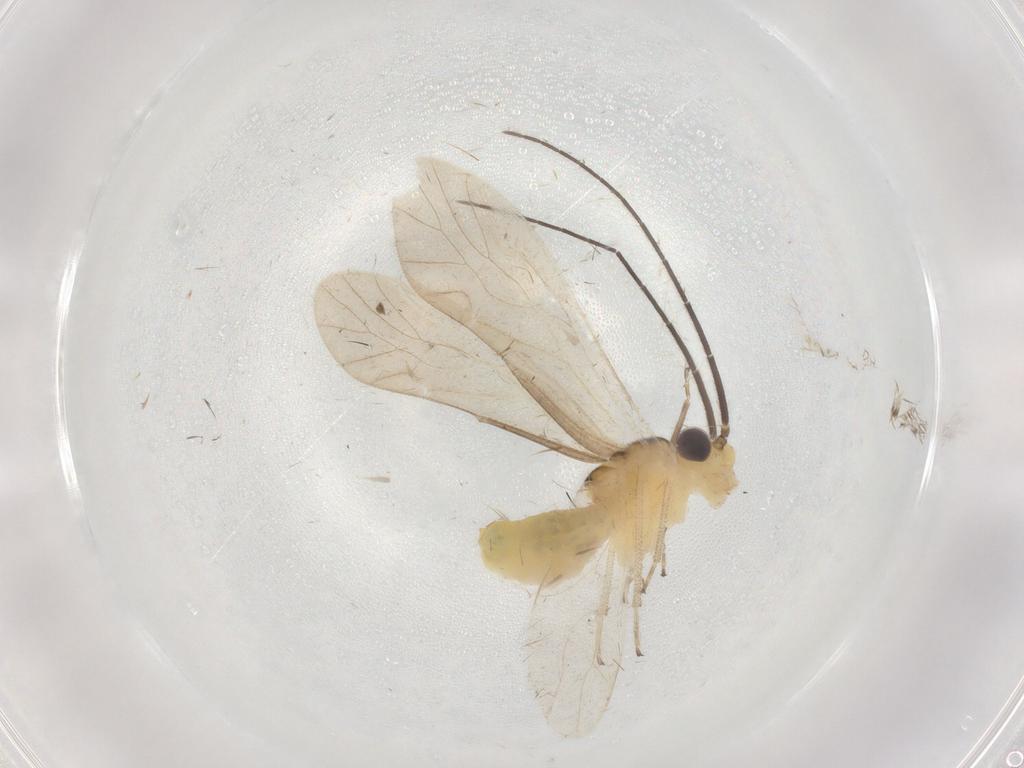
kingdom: Animalia
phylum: Arthropoda
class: Insecta
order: Psocodea
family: Caeciliusidae
